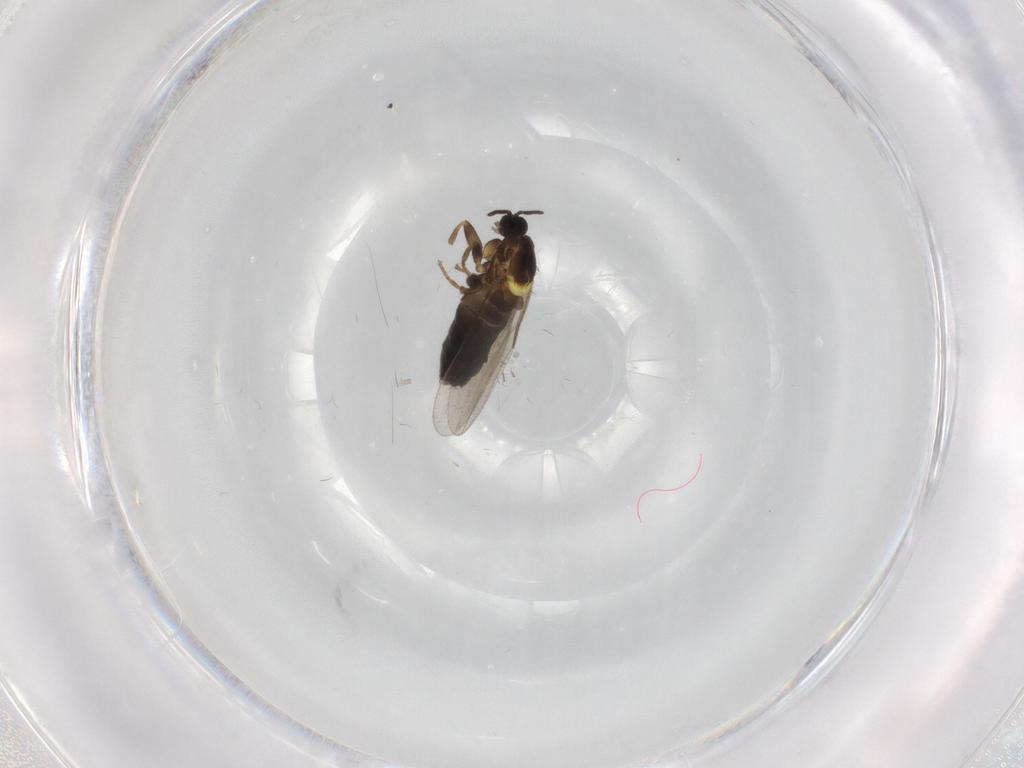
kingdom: Animalia
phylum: Arthropoda
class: Insecta
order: Diptera
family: Scatopsidae
